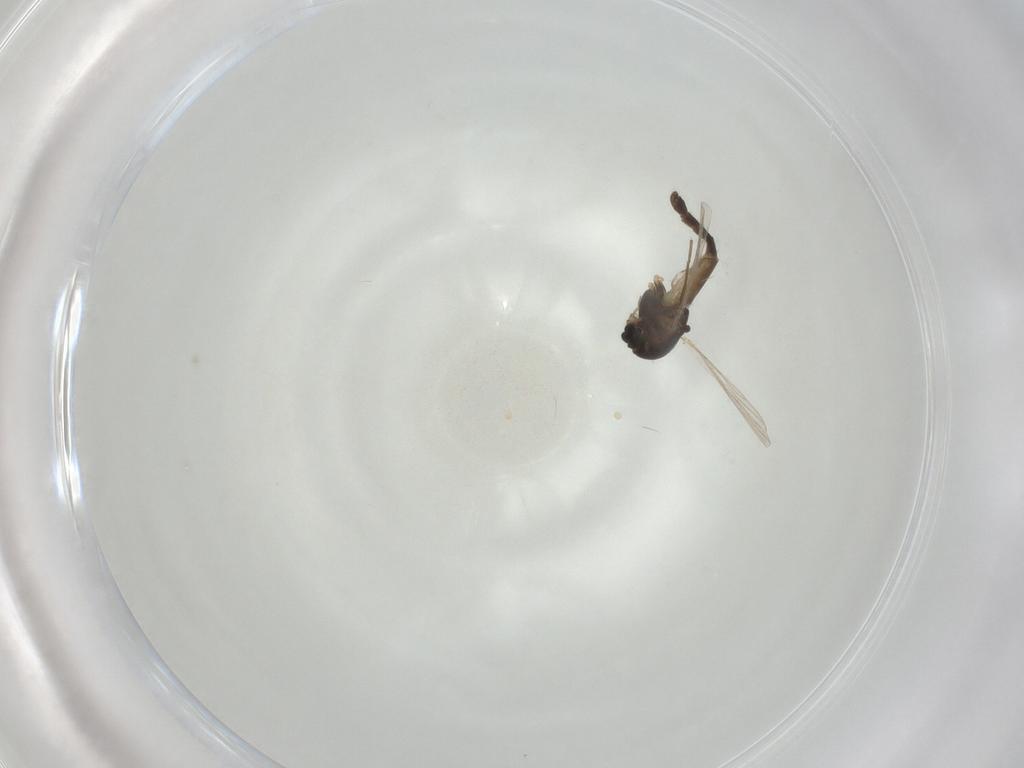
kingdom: Animalia
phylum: Arthropoda
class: Insecta
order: Diptera
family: Chironomidae
